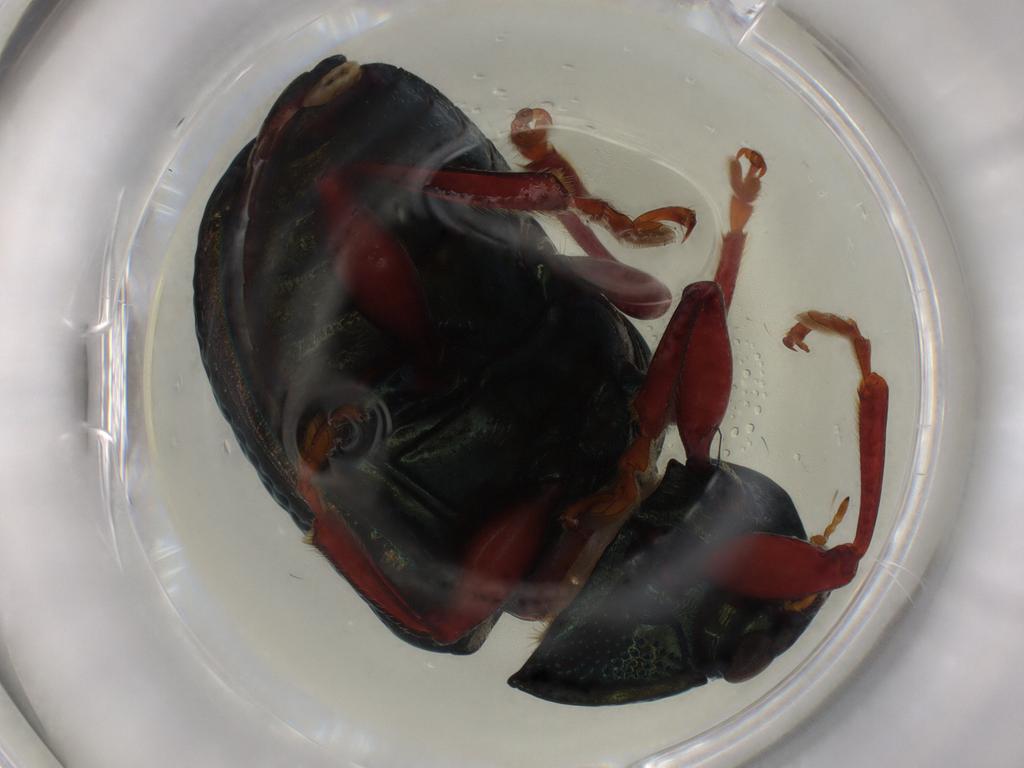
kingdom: Animalia
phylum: Arthropoda
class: Insecta
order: Coleoptera
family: Chrysomelidae
